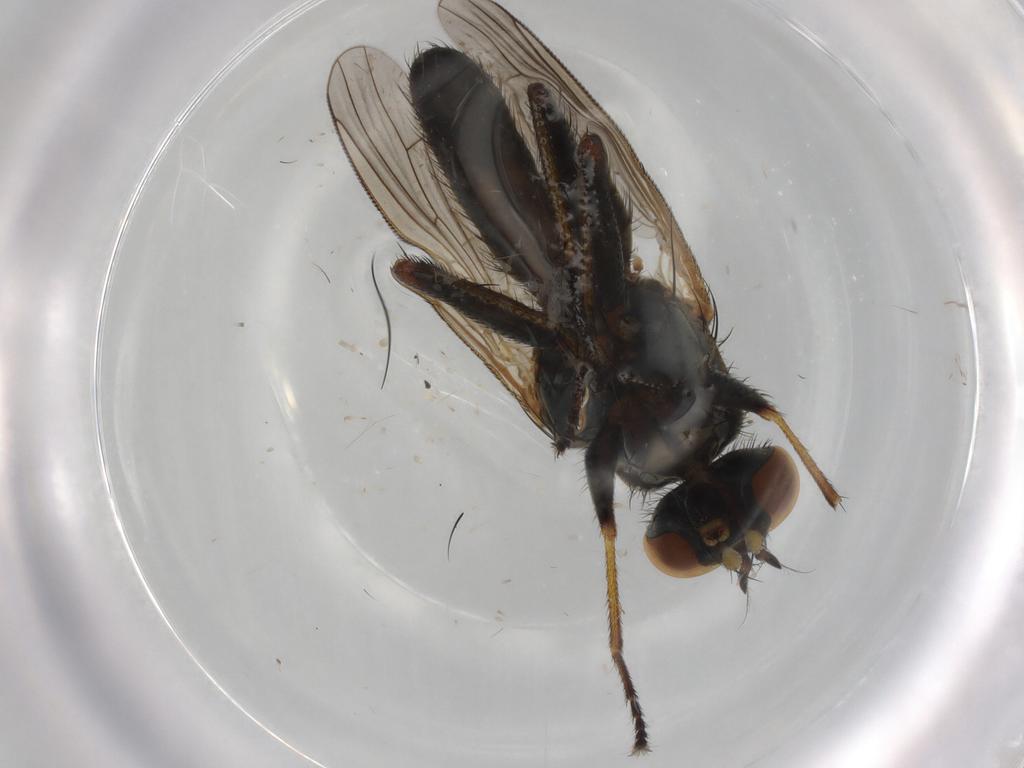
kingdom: Animalia
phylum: Arthropoda
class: Insecta
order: Diptera
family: Muscidae
